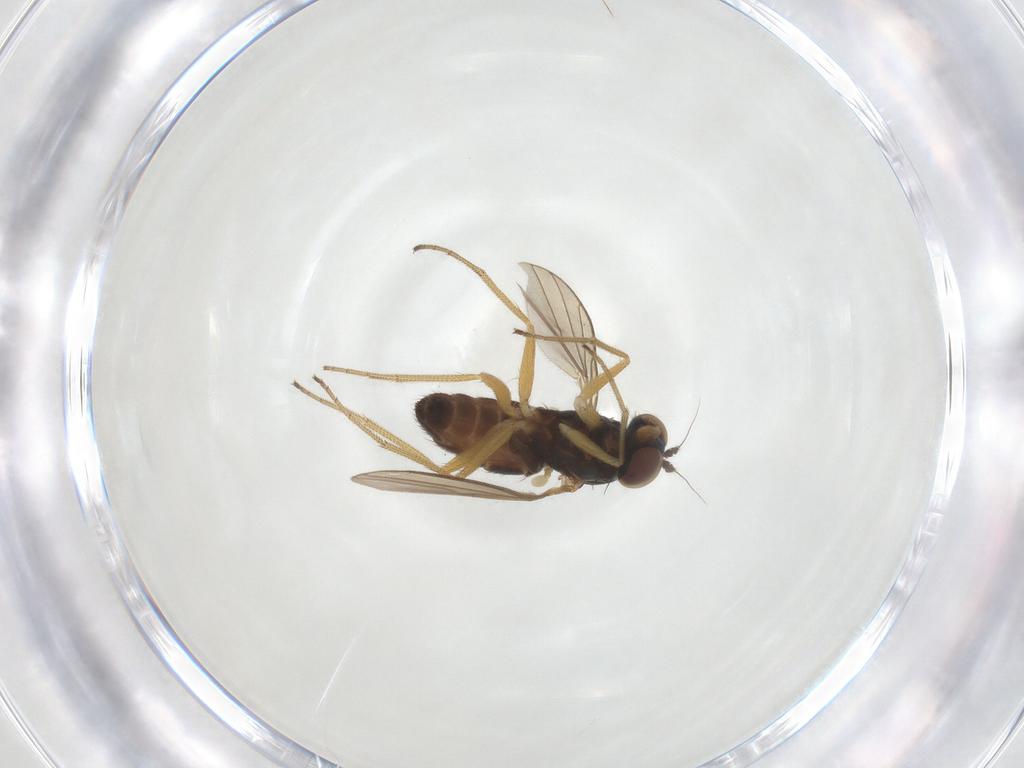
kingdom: Animalia
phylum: Arthropoda
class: Insecta
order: Diptera
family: Dolichopodidae
